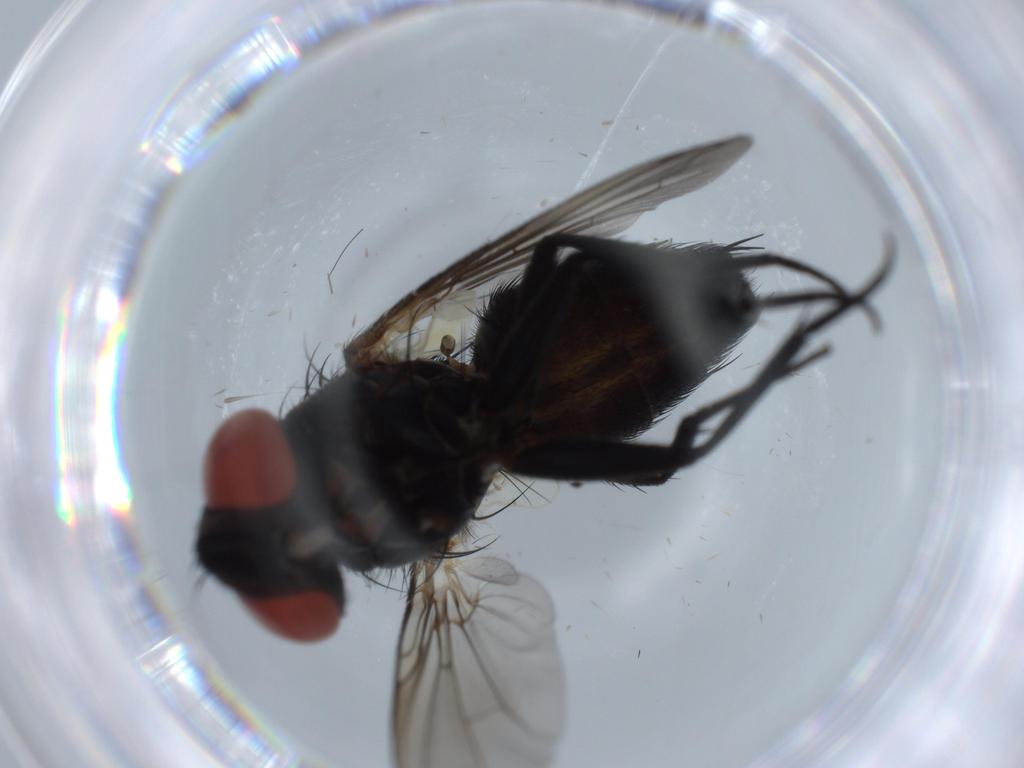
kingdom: Animalia
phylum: Arthropoda
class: Insecta
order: Diptera
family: Sarcophagidae
